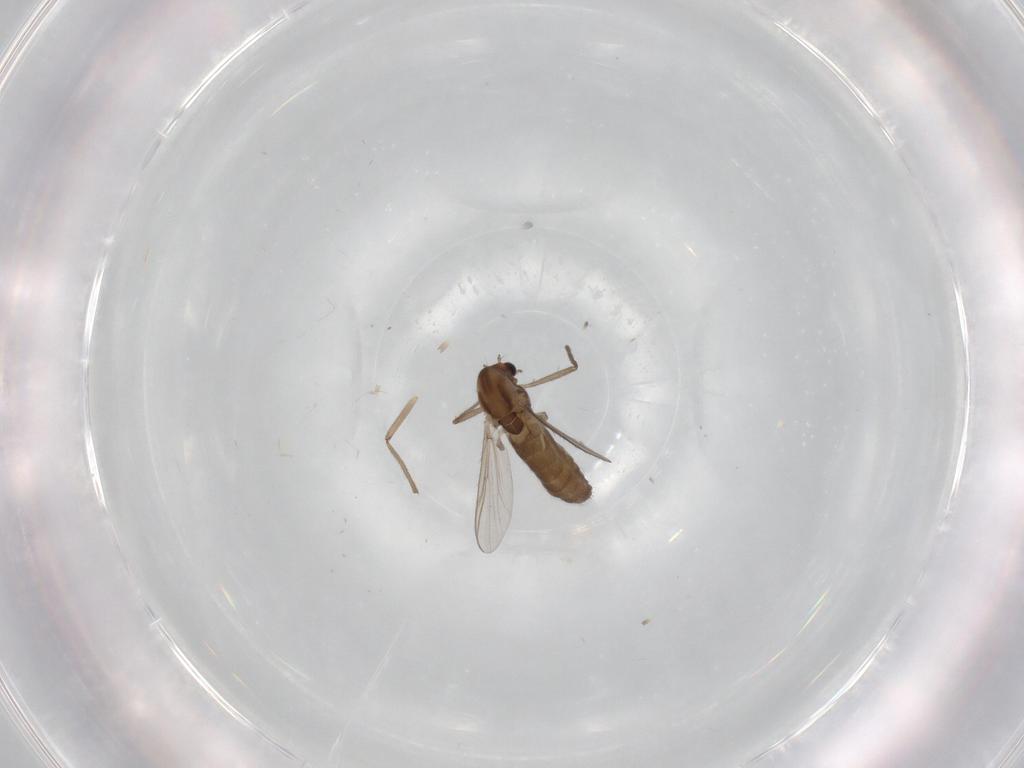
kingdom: Animalia
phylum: Arthropoda
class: Insecta
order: Diptera
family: Chironomidae
